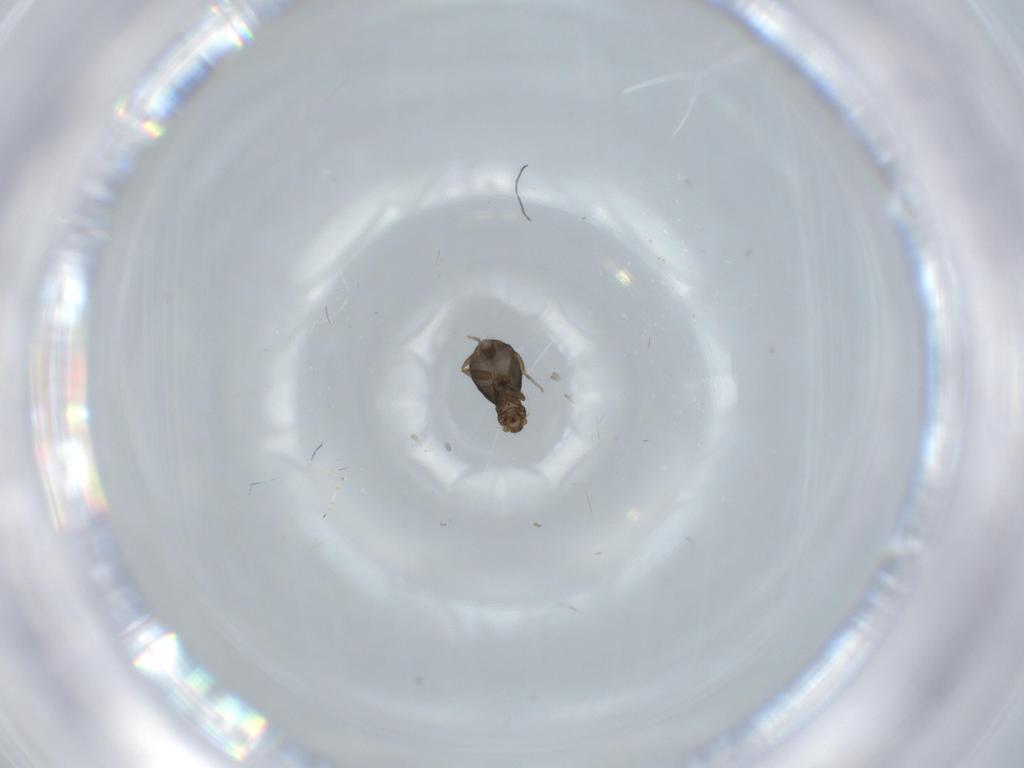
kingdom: Animalia
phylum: Arthropoda
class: Insecta
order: Diptera
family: Phoridae
